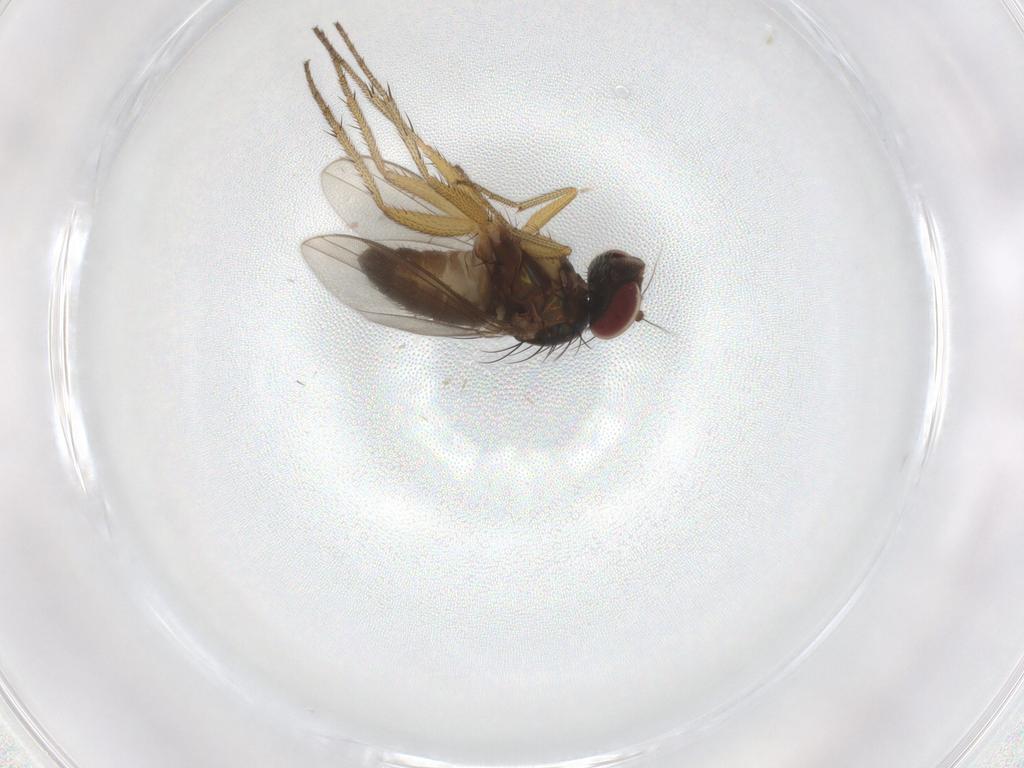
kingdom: Animalia
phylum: Arthropoda
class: Insecta
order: Diptera
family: Dolichopodidae
